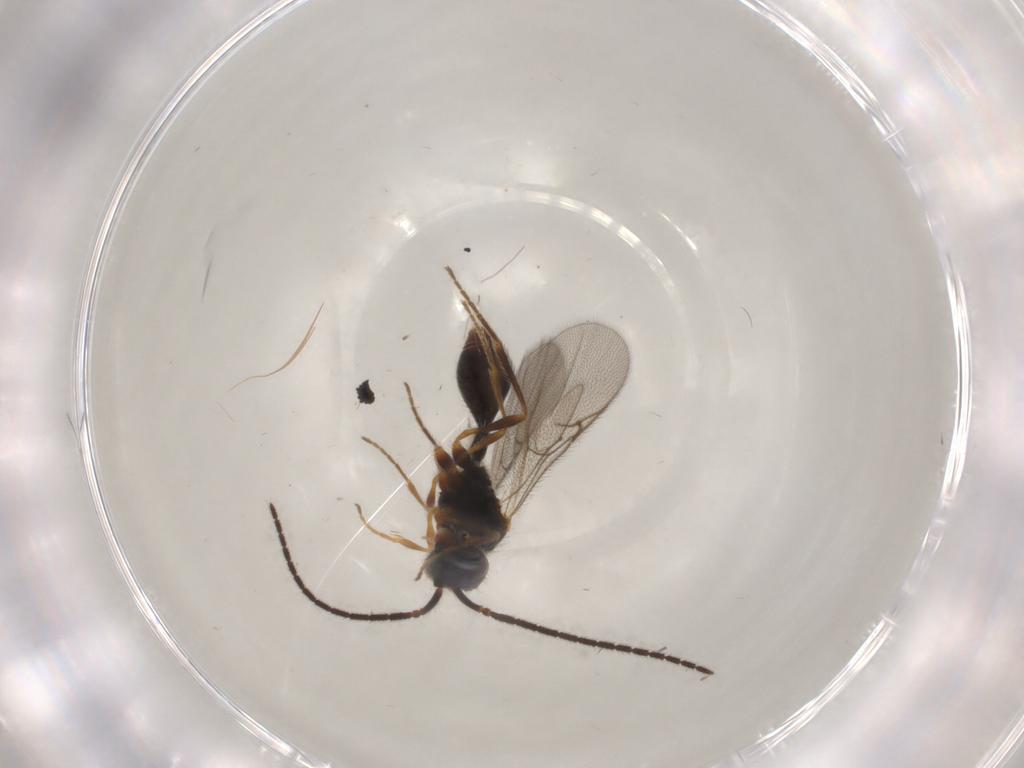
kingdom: Animalia
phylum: Arthropoda
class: Insecta
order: Hymenoptera
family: Diapriidae
